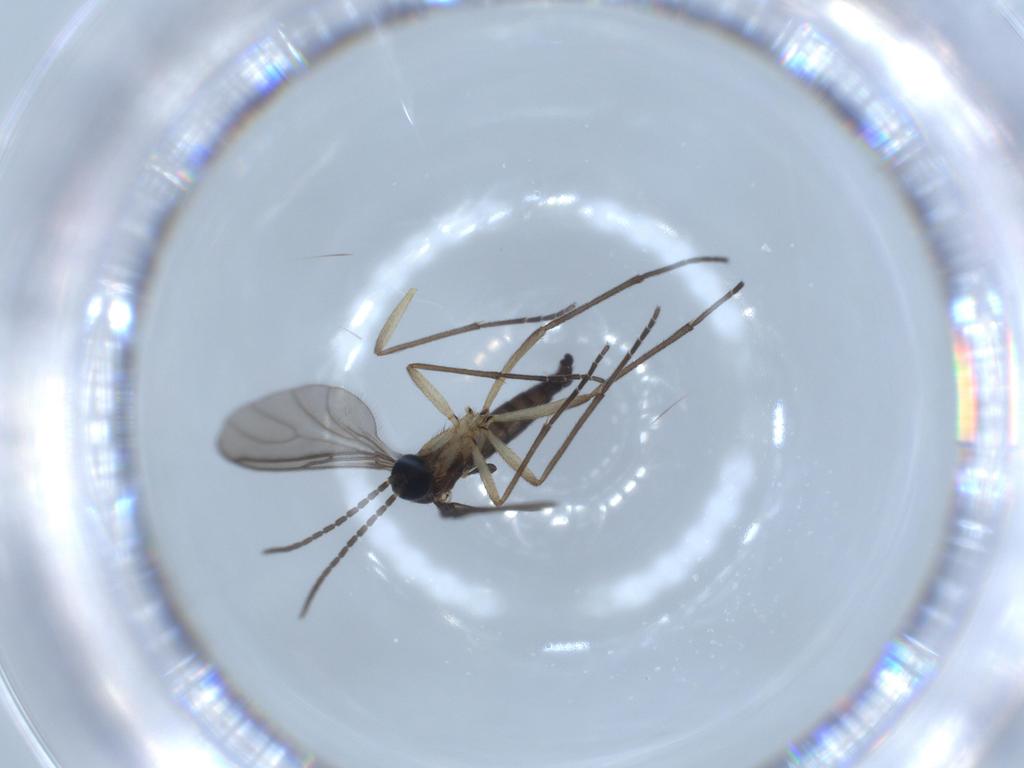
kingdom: Animalia
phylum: Arthropoda
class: Insecta
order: Diptera
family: Sciaridae
